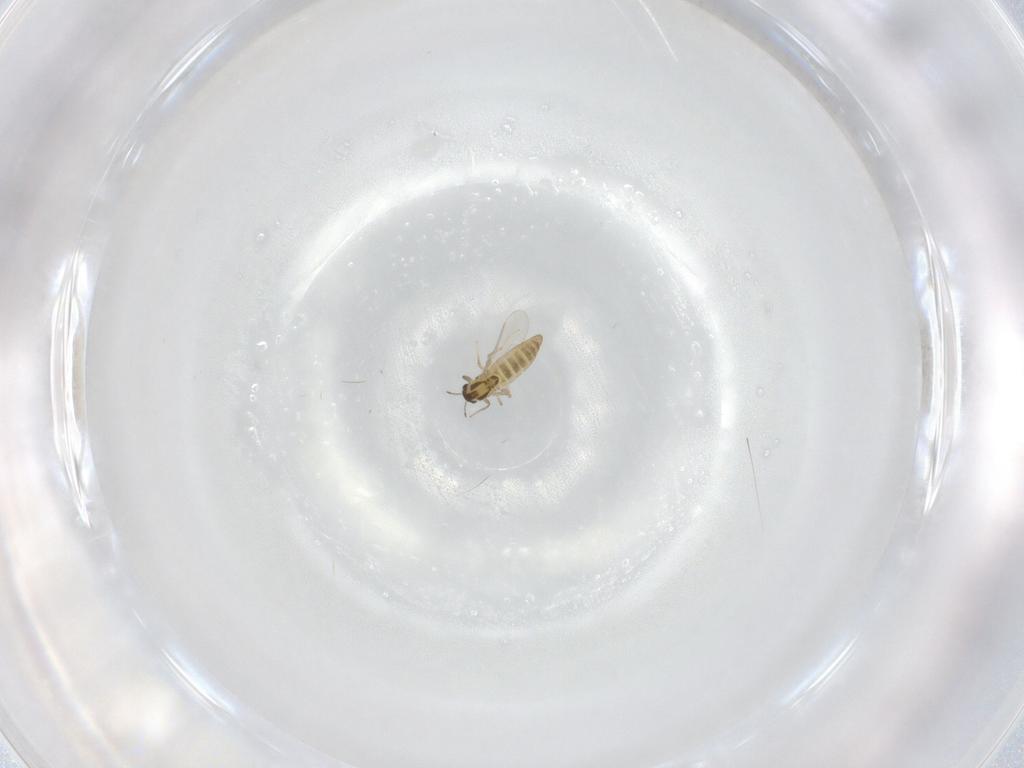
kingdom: Animalia
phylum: Arthropoda
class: Insecta
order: Diptera
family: Chironomidae
